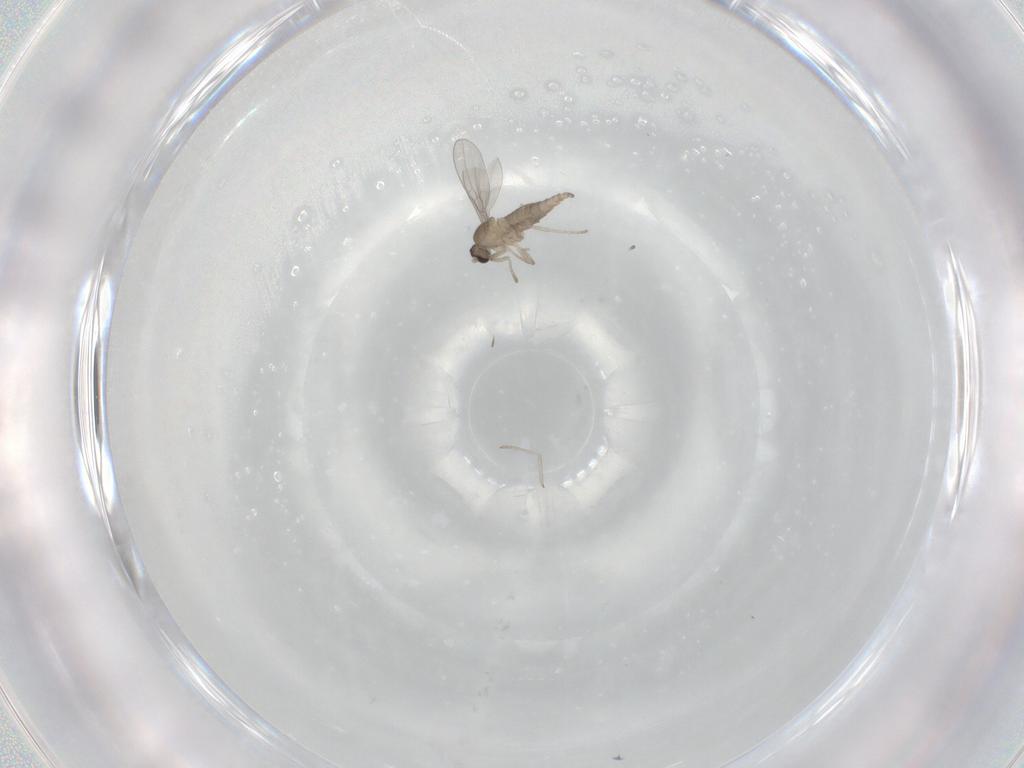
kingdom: Animalia
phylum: Arthropoda
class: Insecta
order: Diptera
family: Cecidomyiidae
